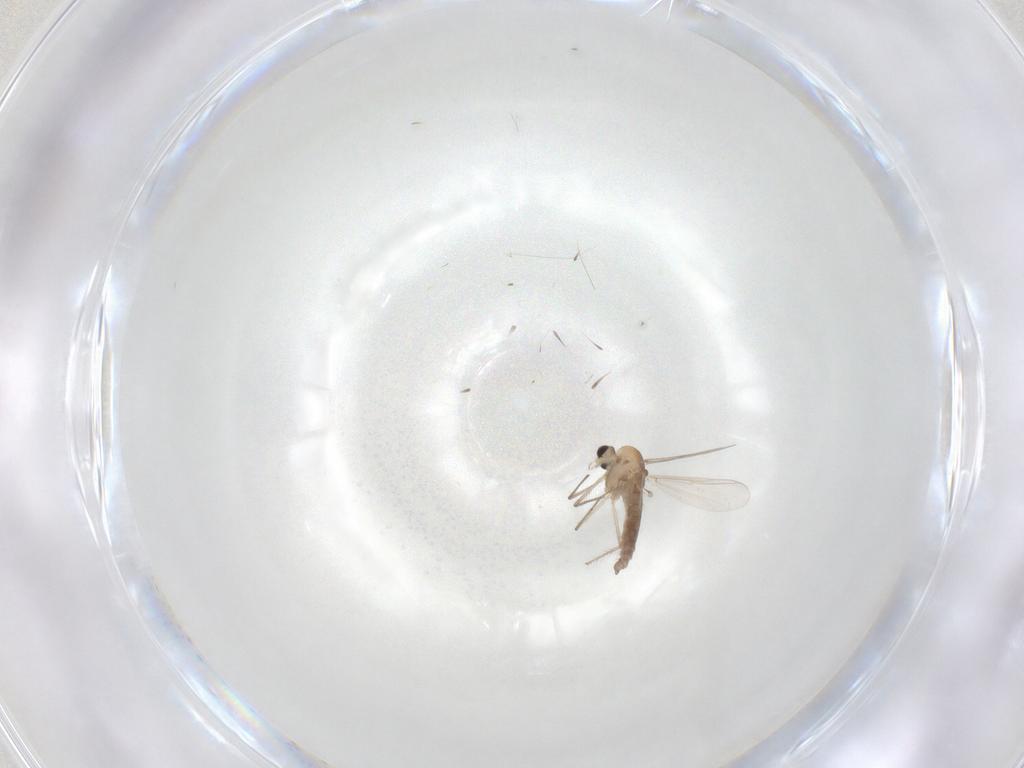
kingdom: Animalia
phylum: Arthropoda
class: Insecta
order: Diptera
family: Chironomidae
